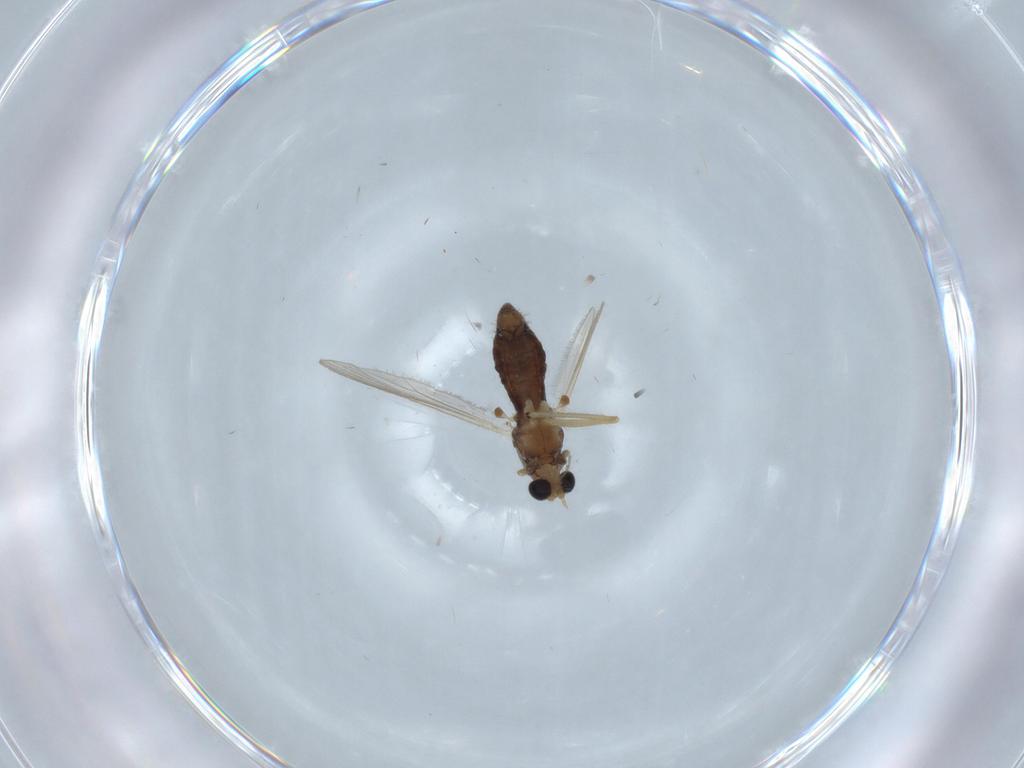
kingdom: Animalia
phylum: Arthropoda
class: Insecta
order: Diptera
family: Chironomidae
